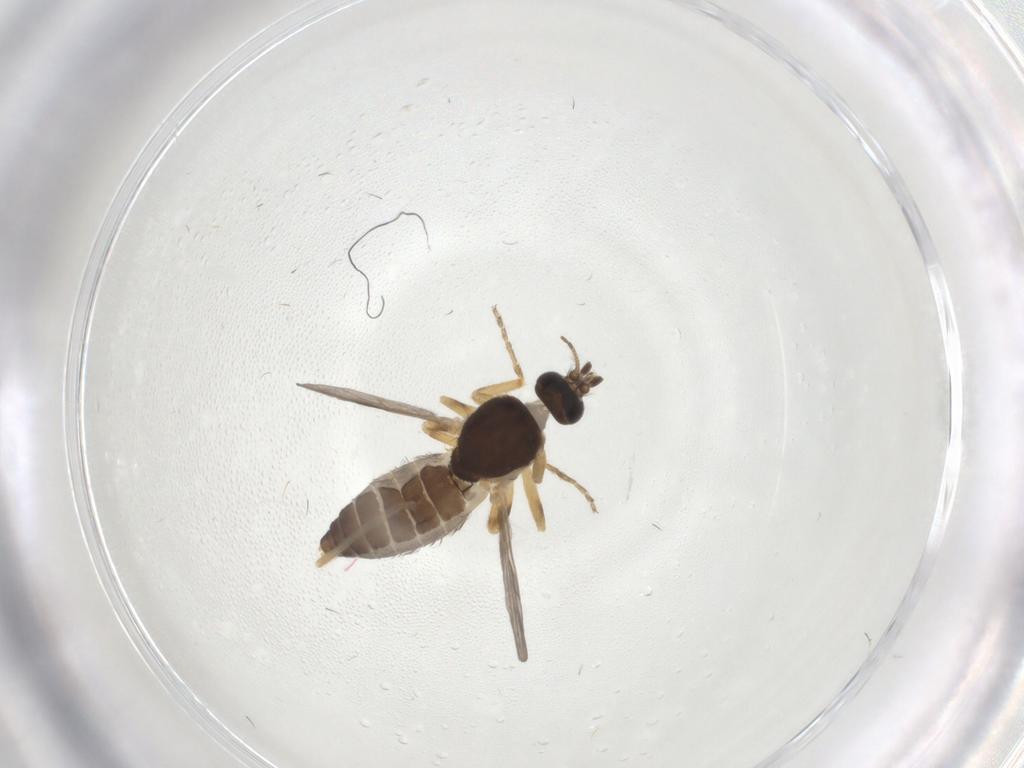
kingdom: Animalia
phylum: Arthropoda
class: Insecta
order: Diptera
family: Ceratopogonidae
